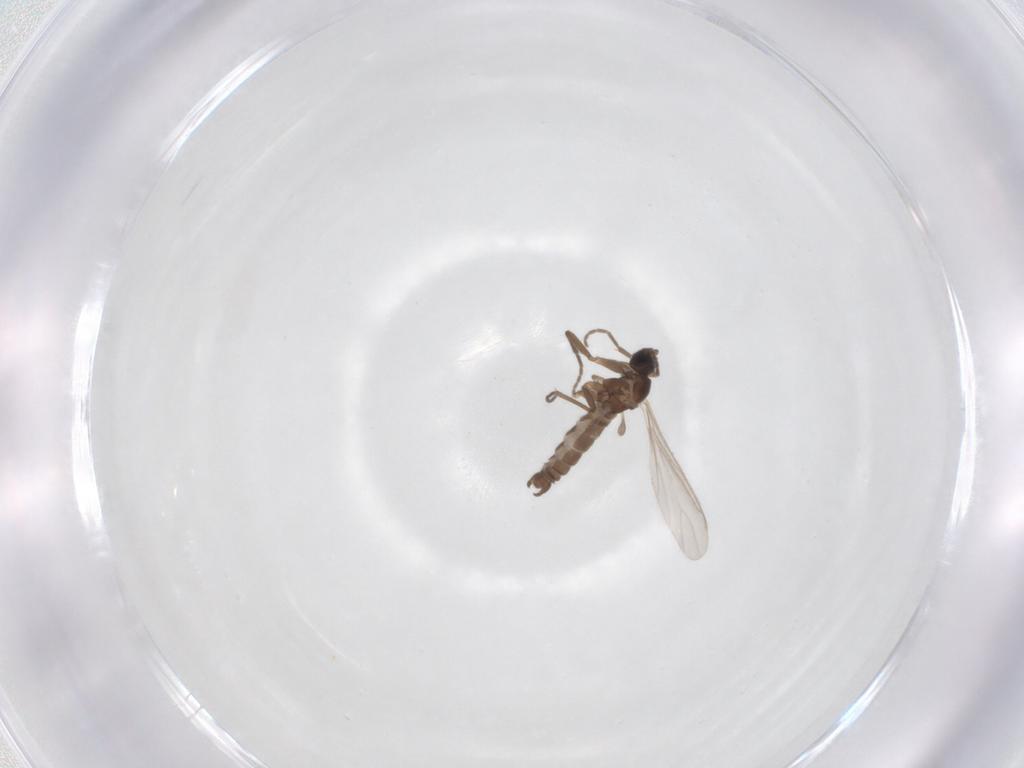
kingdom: Animalia
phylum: Arthropoda
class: Insecta
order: Diptera
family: Sciaridae
